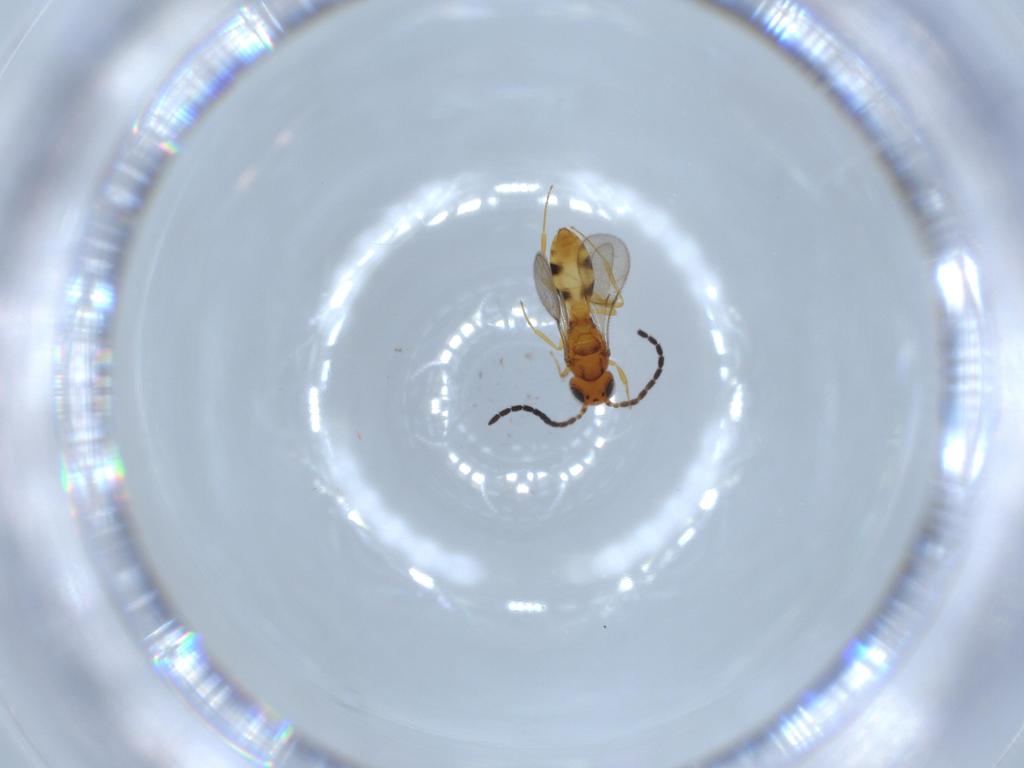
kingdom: Animalia
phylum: Arthropoda
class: Insecta
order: Hymenoptera
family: Scelionidae
